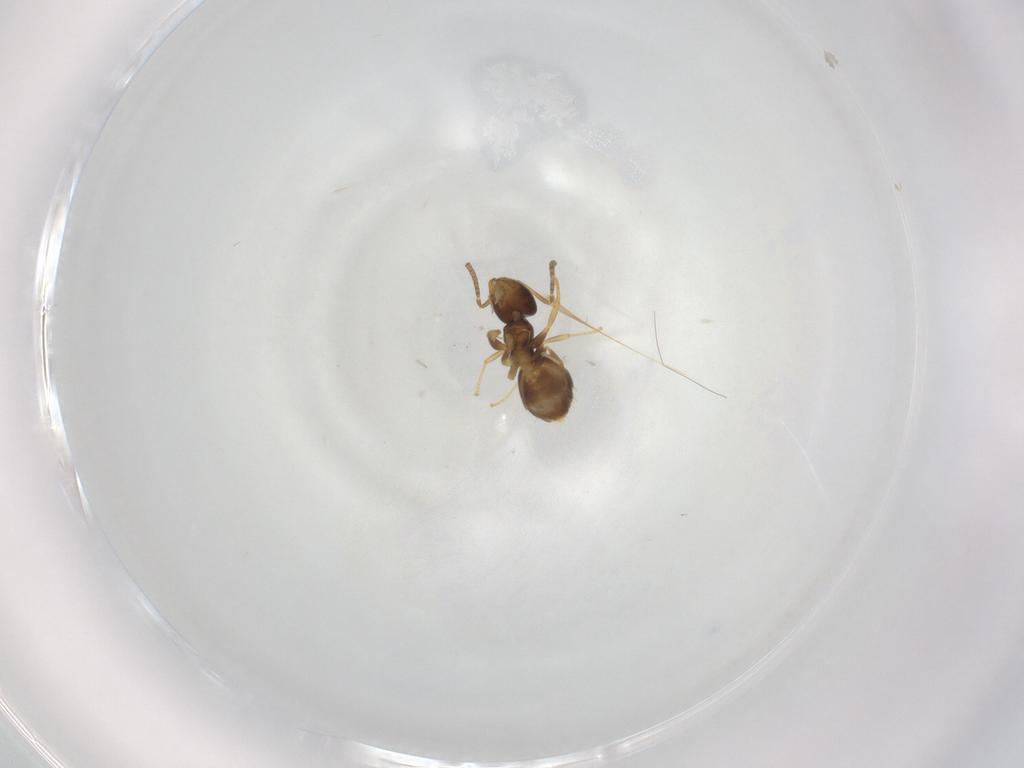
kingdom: Animalia
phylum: Arthropoda
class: Insecta
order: Hymenoptera
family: Formicidae
